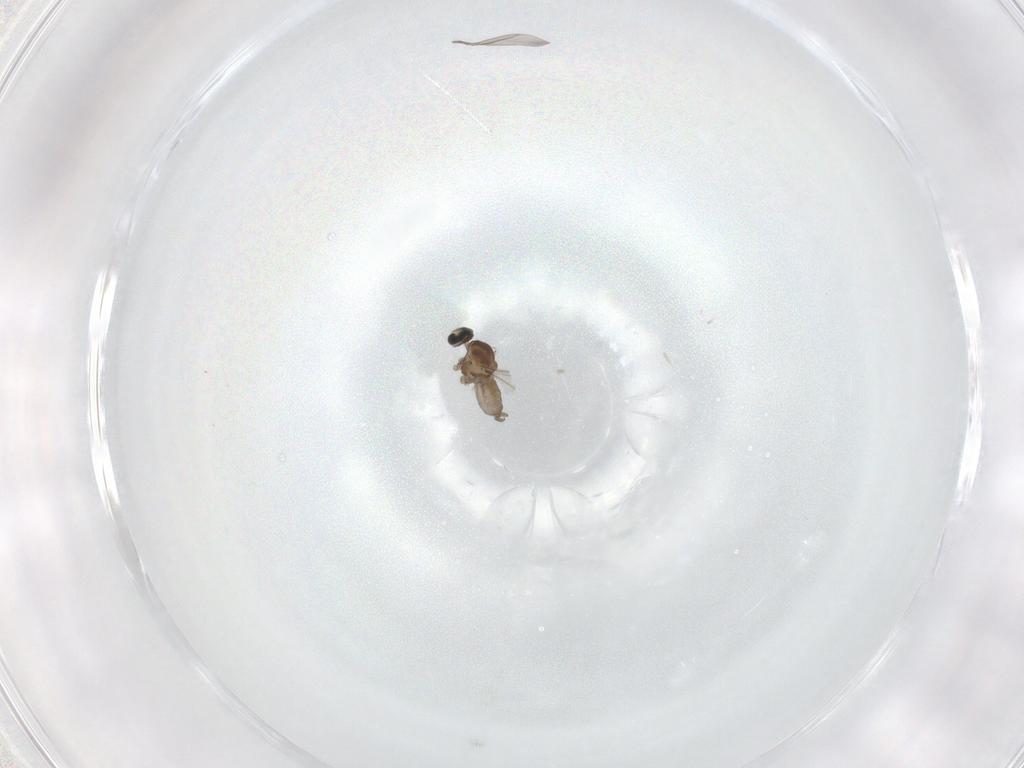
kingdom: Animalia
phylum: Arthropoda
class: Insecta
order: Diptera
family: Cecidomyiidae
